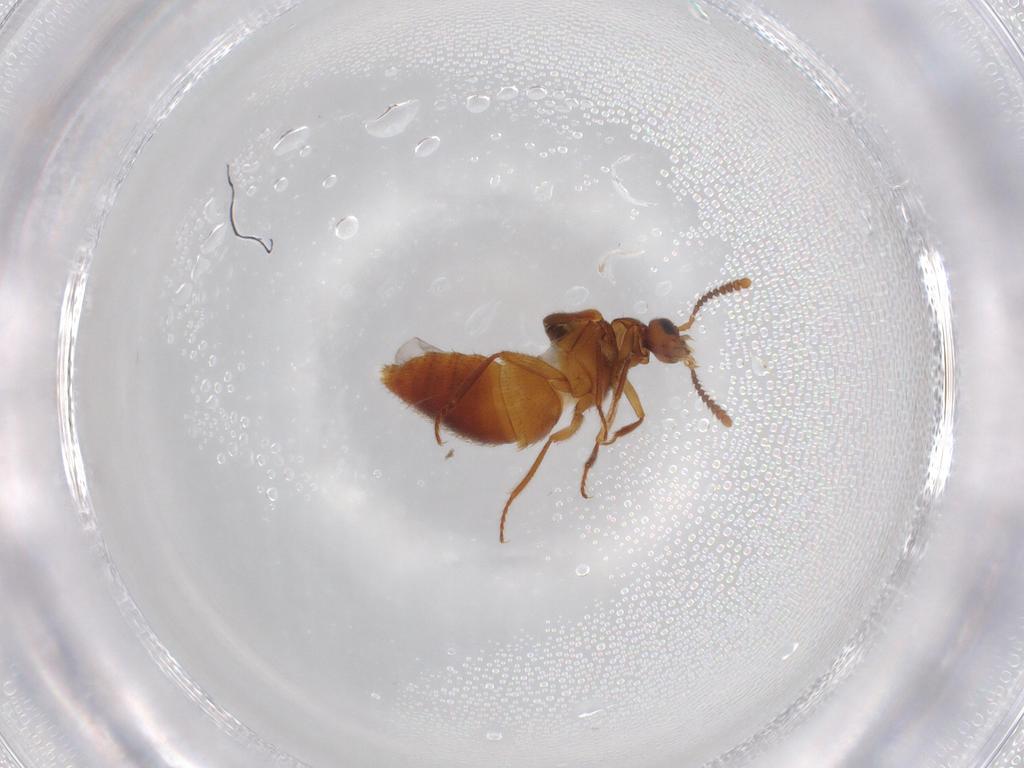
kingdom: Animalia
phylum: Arthropoda
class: Insecta
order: Coleoptera
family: Staphylinidae
